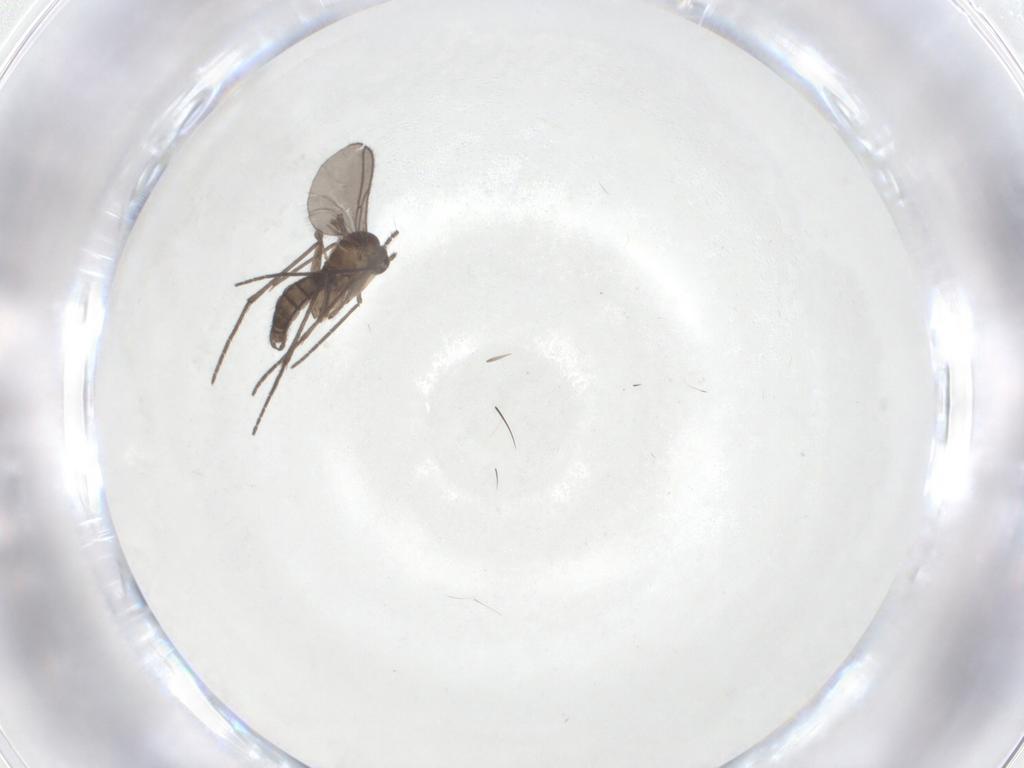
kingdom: Animalia
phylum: Arthropoda
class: Insecta
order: Diptera
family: Sciaridae
